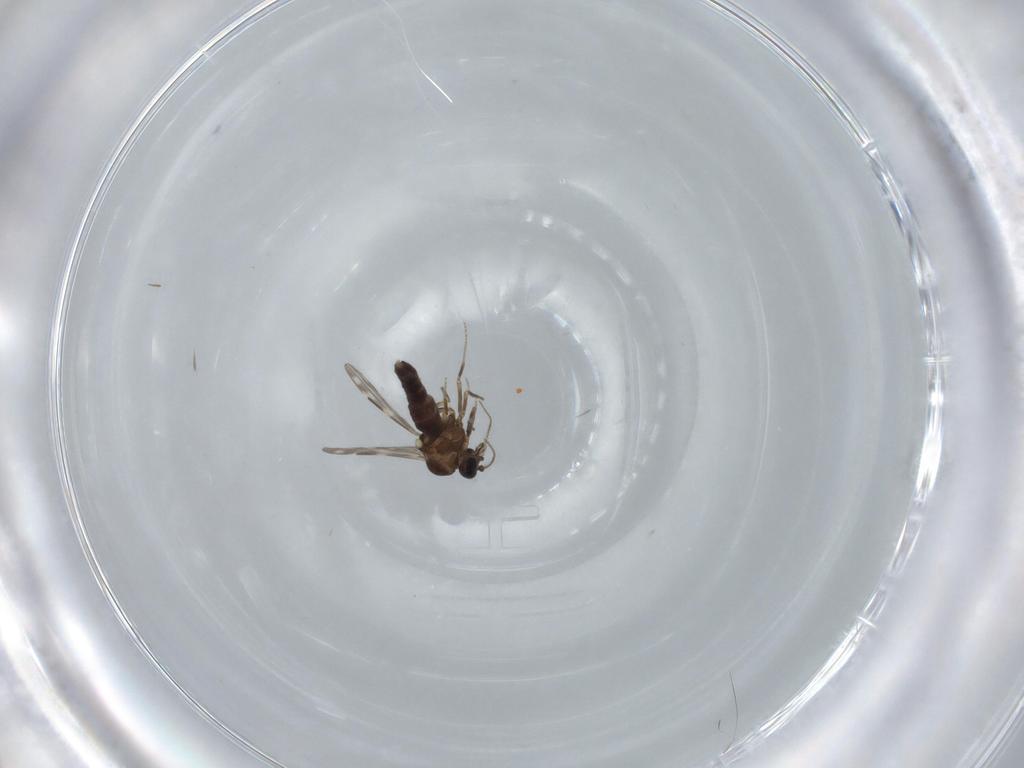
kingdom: Animalia
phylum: Arthropoda
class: Insecta
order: Diptera
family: Ceratopogonidae
